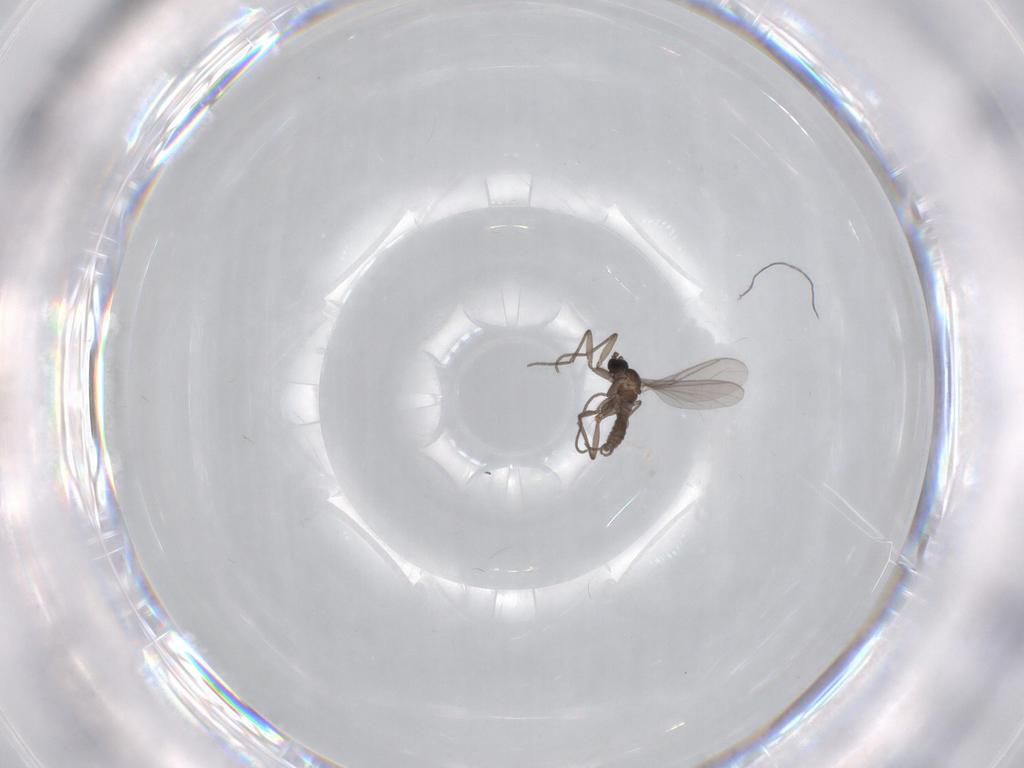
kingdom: Animalia
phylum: Arthropoda
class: Insecta
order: Diptera
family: Sciaridae
